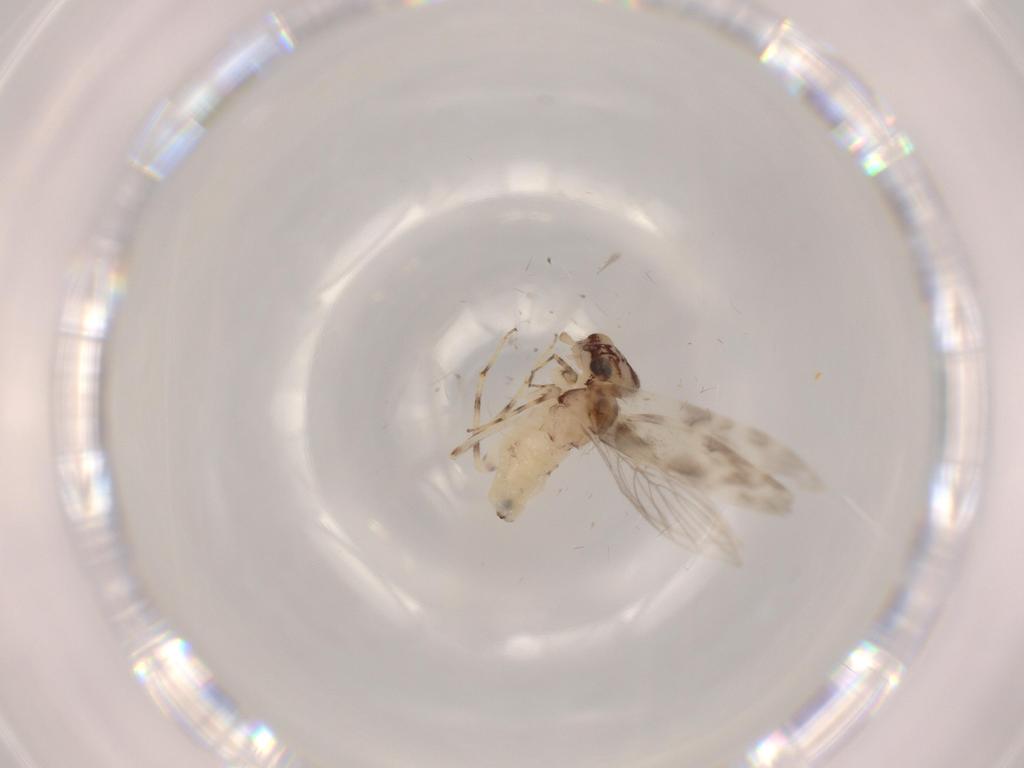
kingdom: Animalia
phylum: Arthropoda
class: Insecta
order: Psocodea
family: Lepidopsocidae
